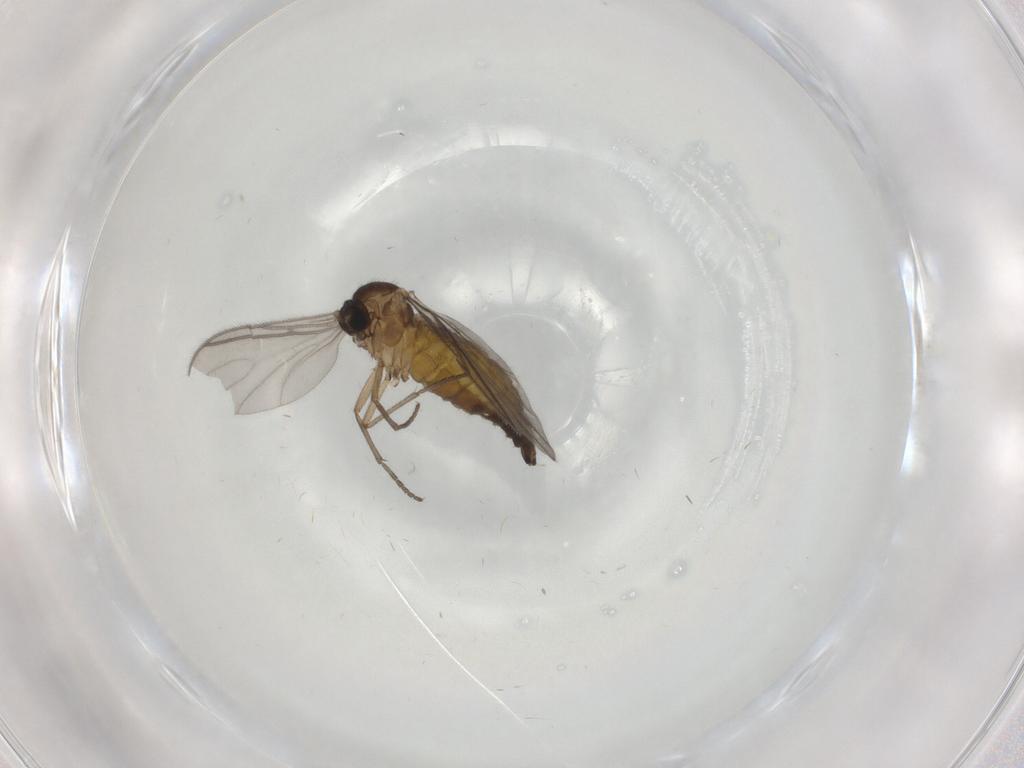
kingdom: Animalia
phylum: Arthropoda
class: Insecta
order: Diptera
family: Sciaridae
